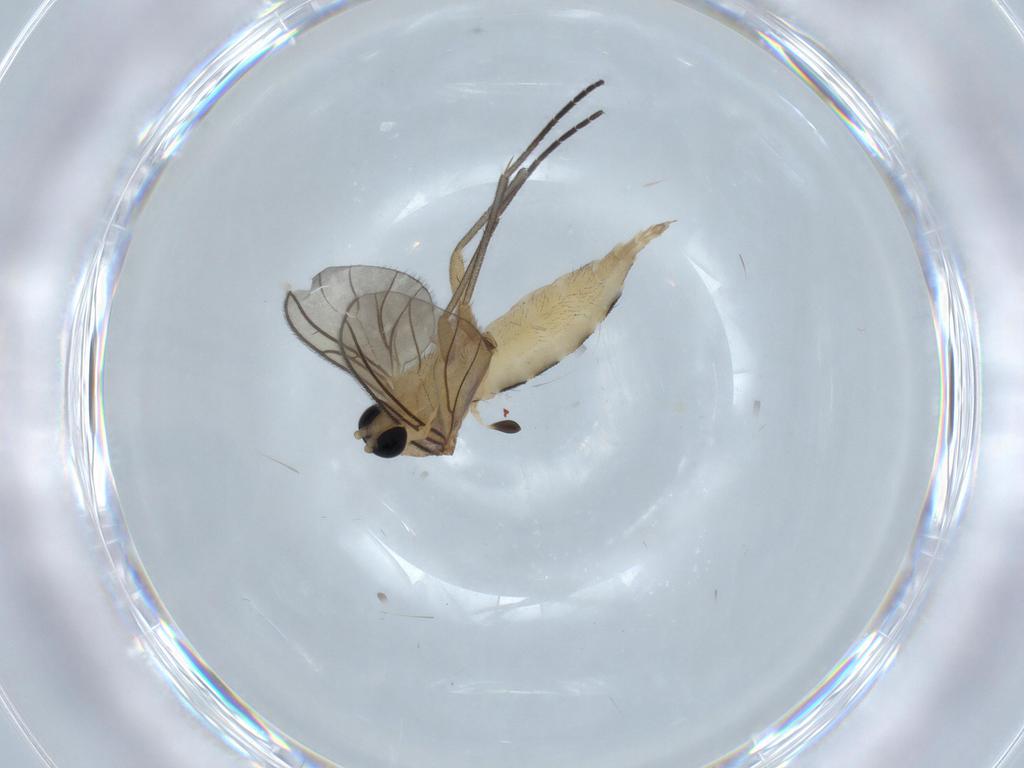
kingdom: Animalia
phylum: Arthropoda
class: Insecta
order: Diptera
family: Sciaridae
